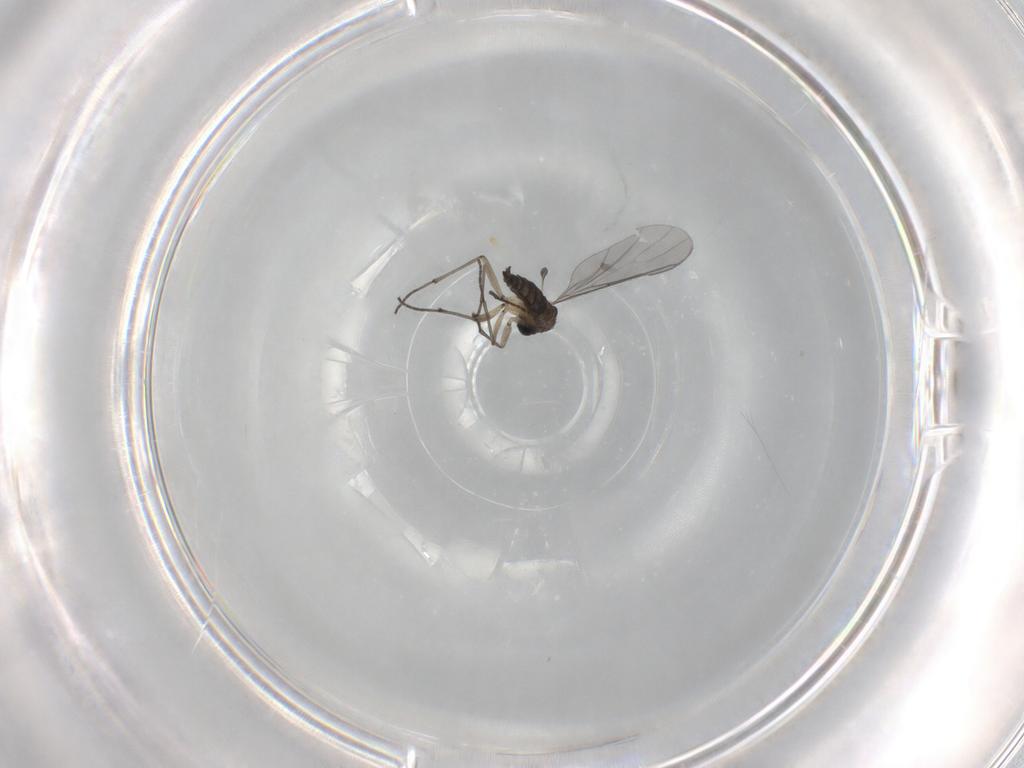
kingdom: Animalia
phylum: Arthropoda
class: Insecta
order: Diptera
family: Sciaridae
